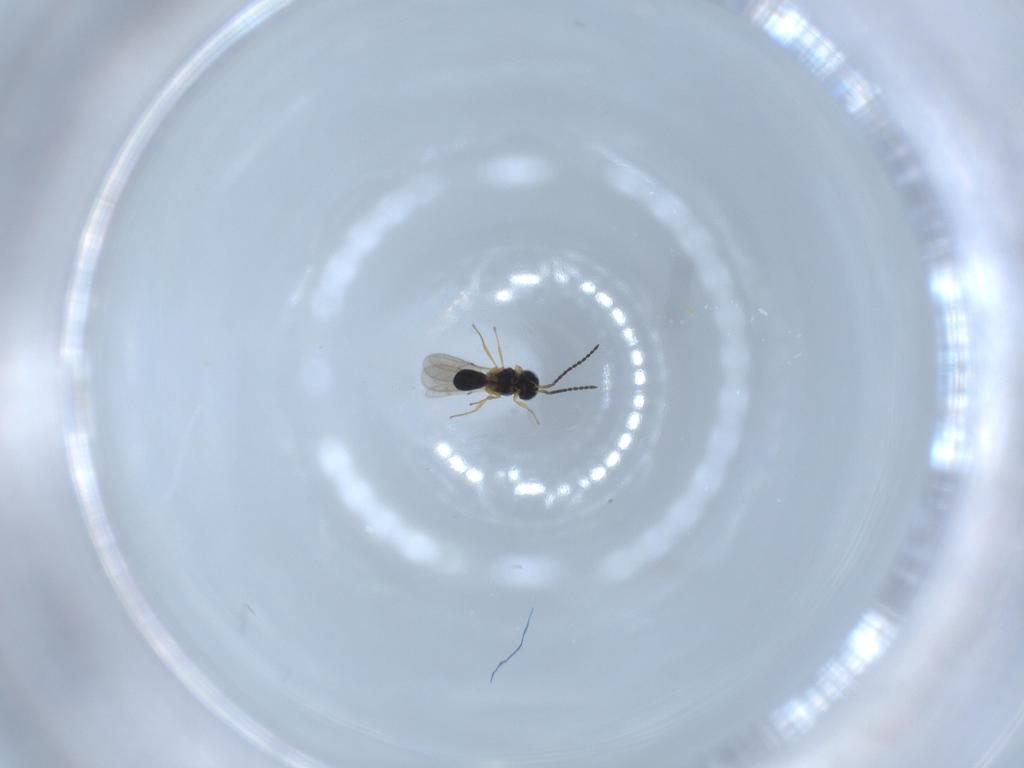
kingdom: Animalia
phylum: Arthropoda
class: Insecta
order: Hymenoptera
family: Scelionidae
